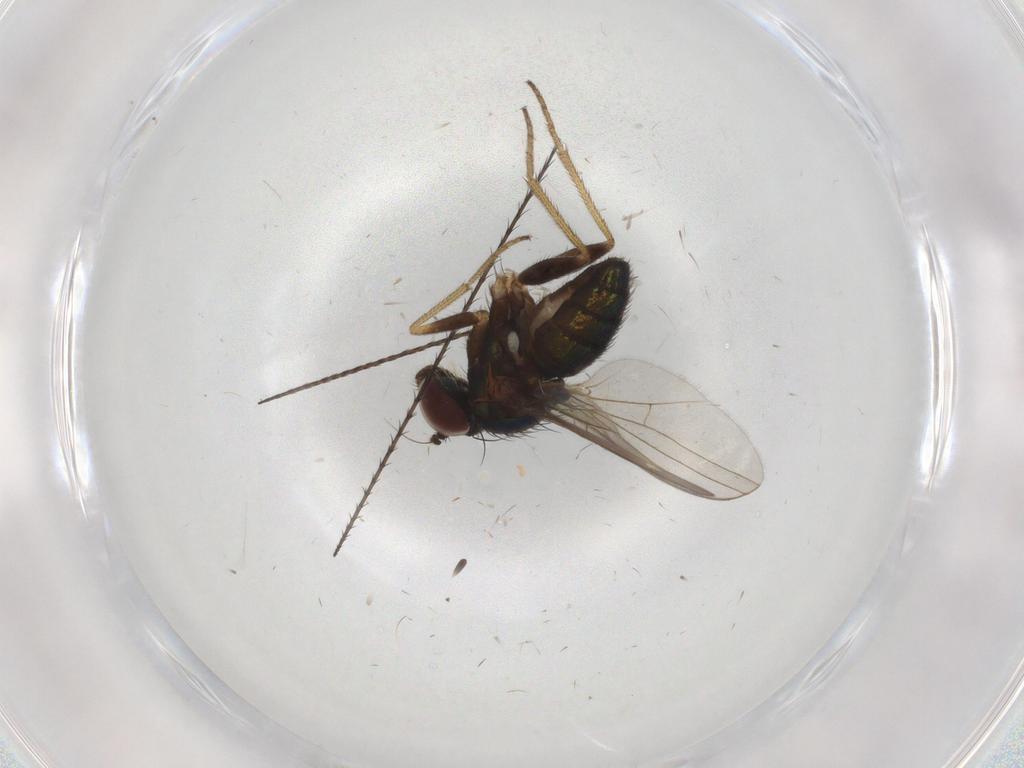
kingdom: Animalia
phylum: Arthropoda
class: Insecta
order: Diptera
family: Dolichopodidae
